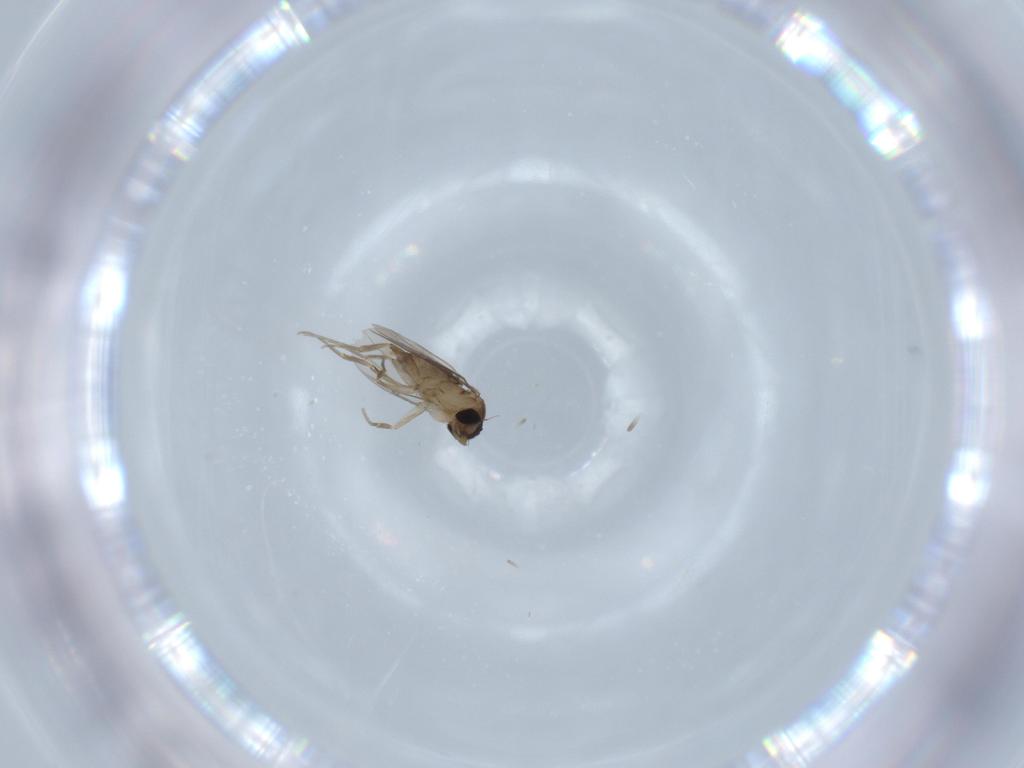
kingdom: Animalia
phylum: Arthropoda
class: Insecta
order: Diptera
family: Phoridae
